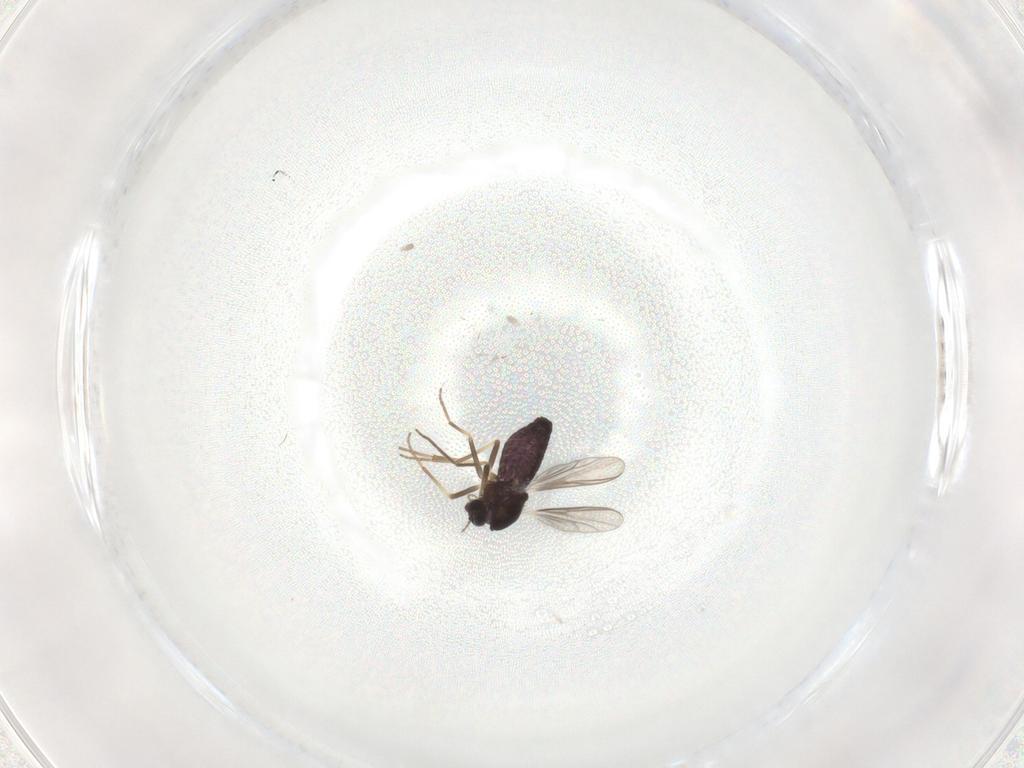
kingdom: Animalia
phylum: Arthropoda
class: Insecta
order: Diptera
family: Chironomidae
